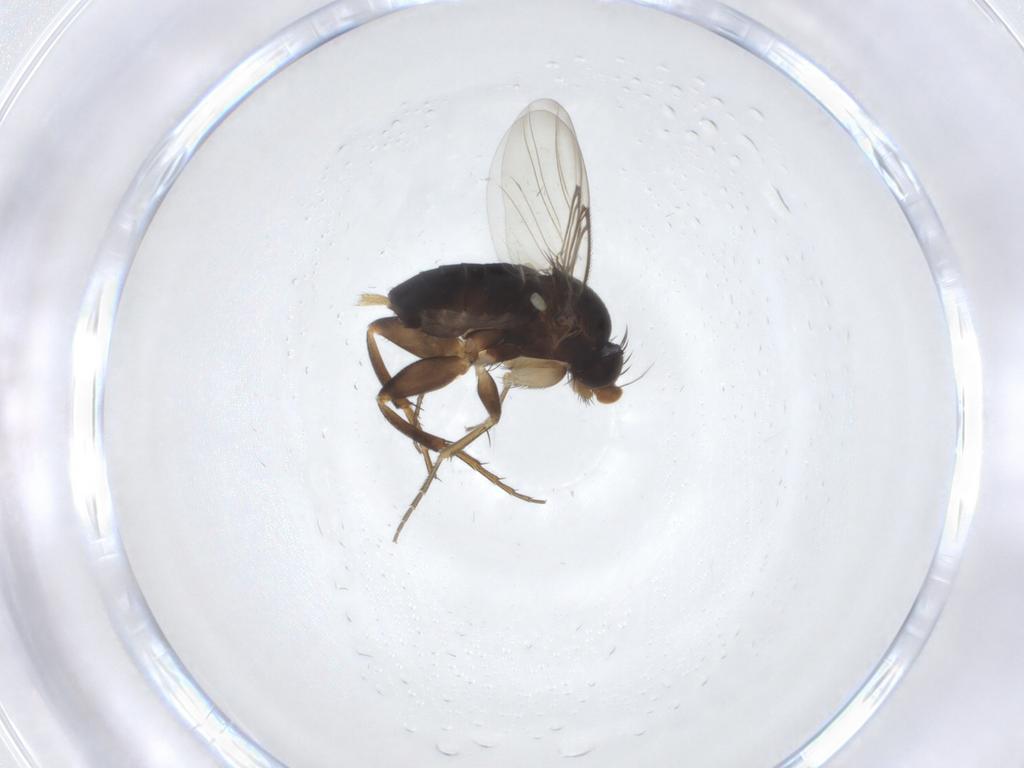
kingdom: Animalia
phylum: Arthropoda
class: Insecta
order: Diptera
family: Phoridae
